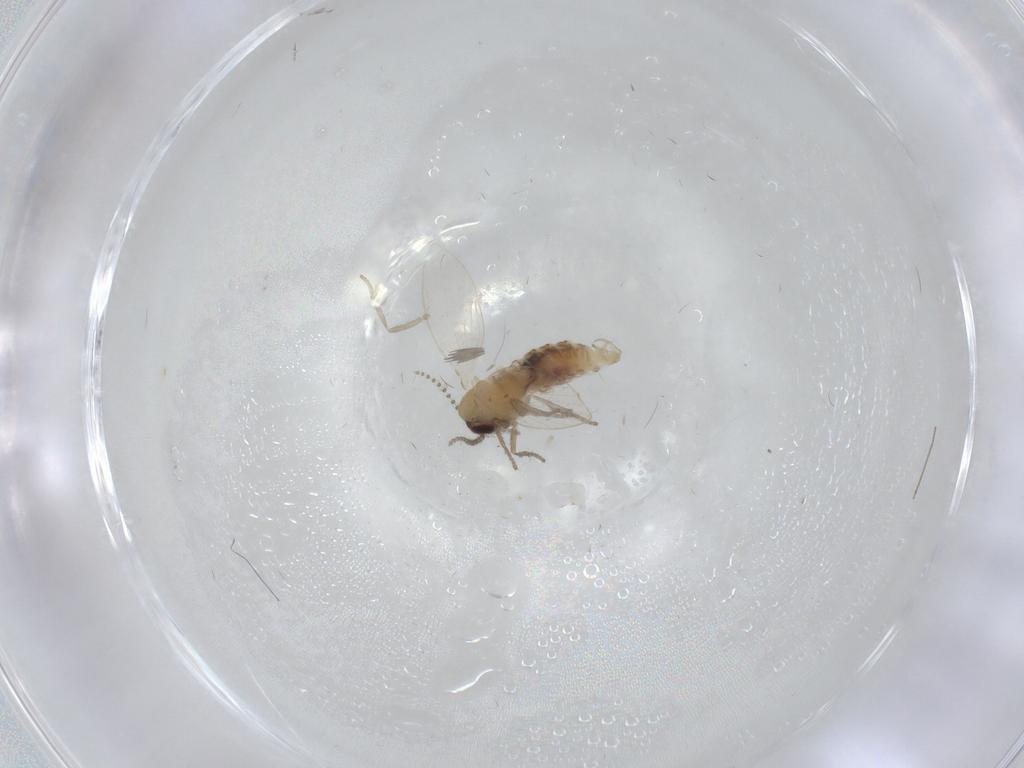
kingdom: Animalia
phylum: Arthropoda
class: Insecta
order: Diptera
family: Psychodidae
